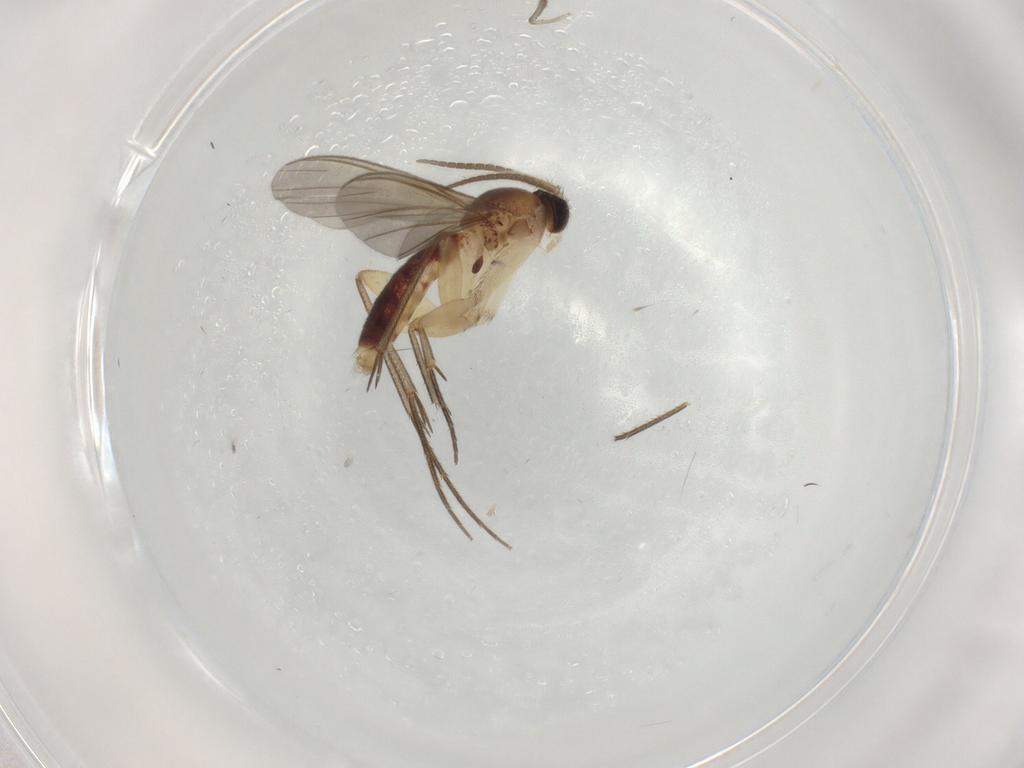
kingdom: Animalia
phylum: Arthropoda
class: Insecta
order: Diptera
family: Mycetophilidae
